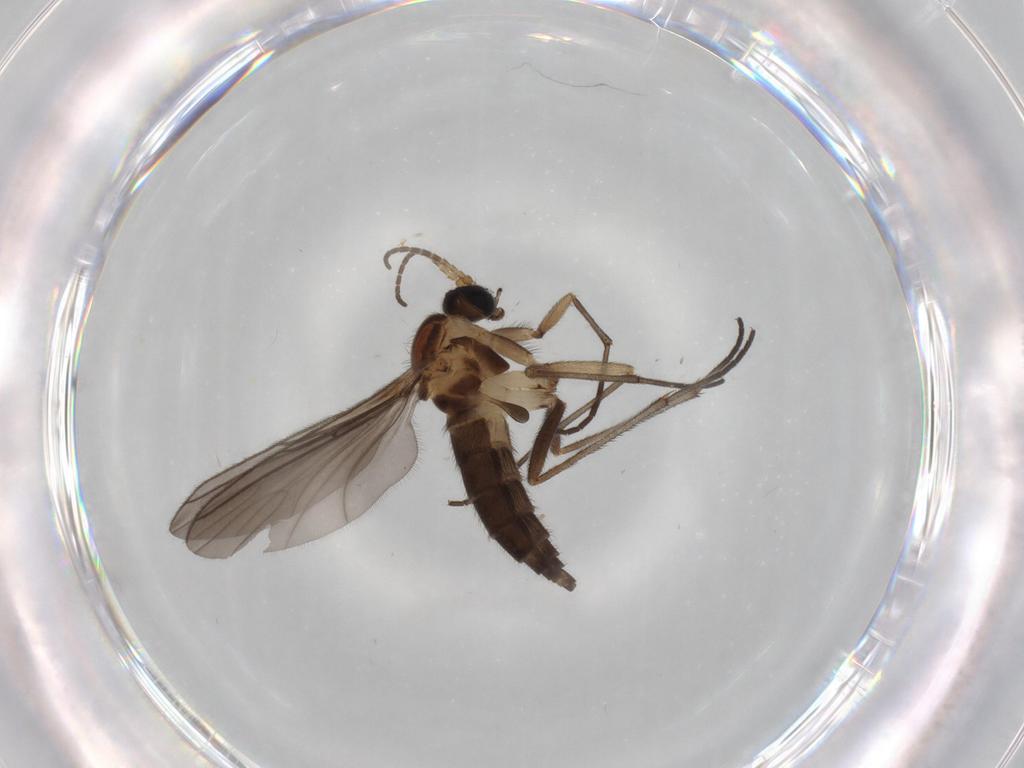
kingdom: Animalia
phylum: Arthropoda
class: Insecta
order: Diptera
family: Sciaridae
